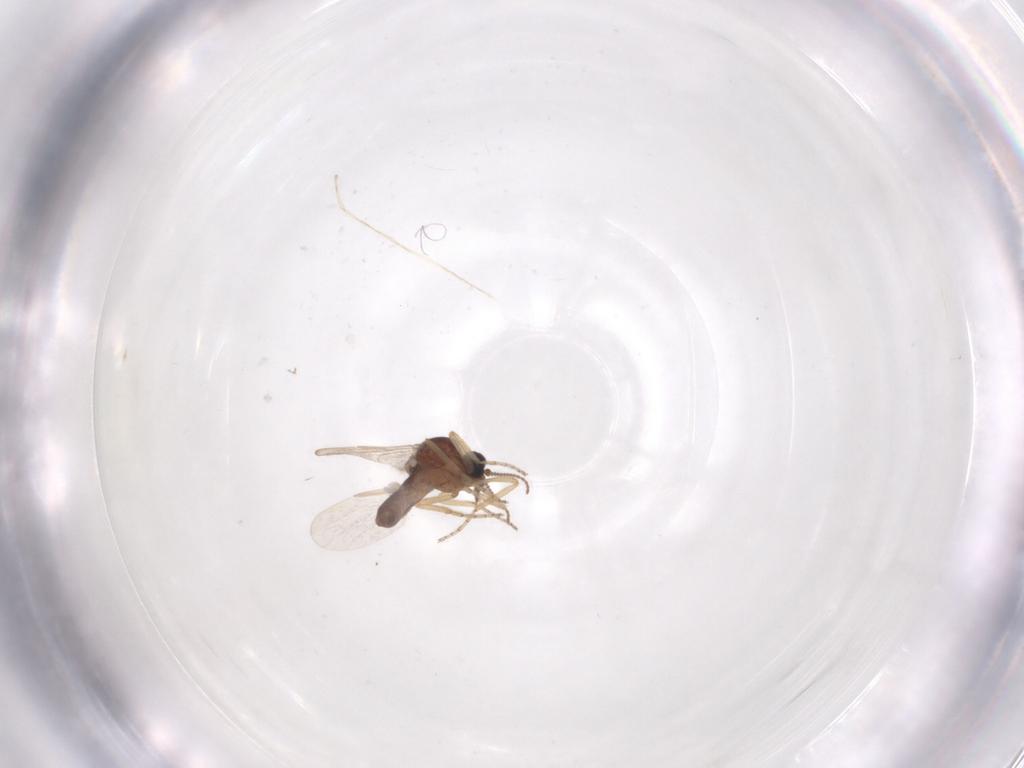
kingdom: Animalia
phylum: Arthropoda
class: Insecta
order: Diptera
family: Ceratopogonidae
